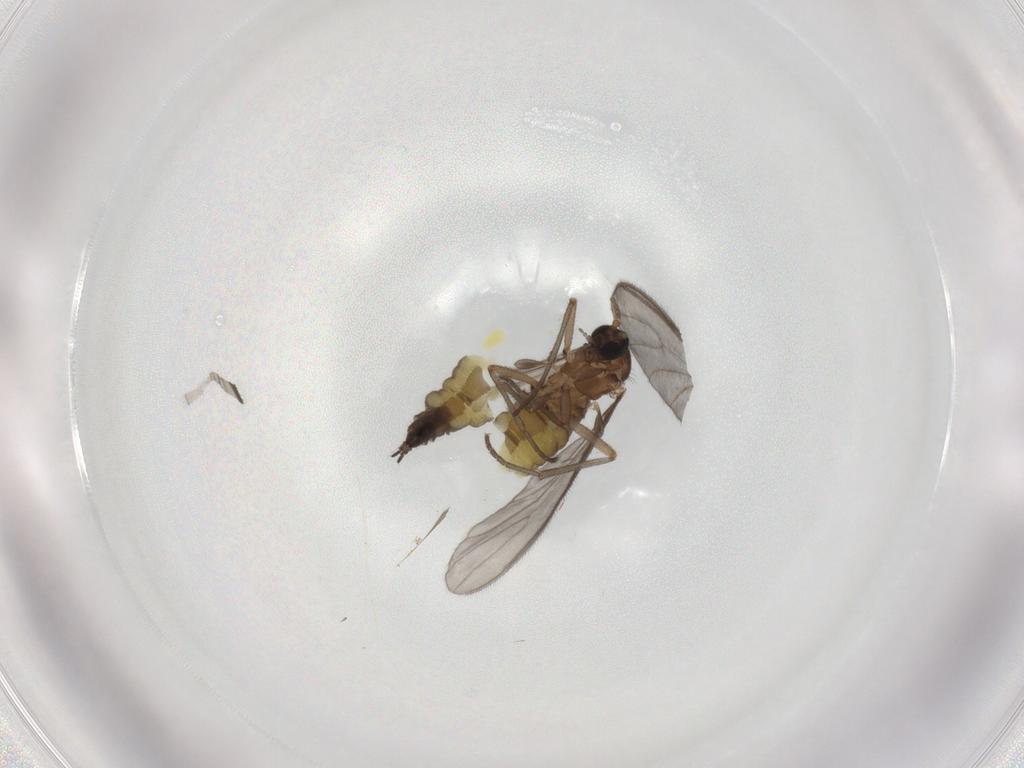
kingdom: Animalia
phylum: Arthropoda
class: Insecta
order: Diptera
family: Sciaridae
